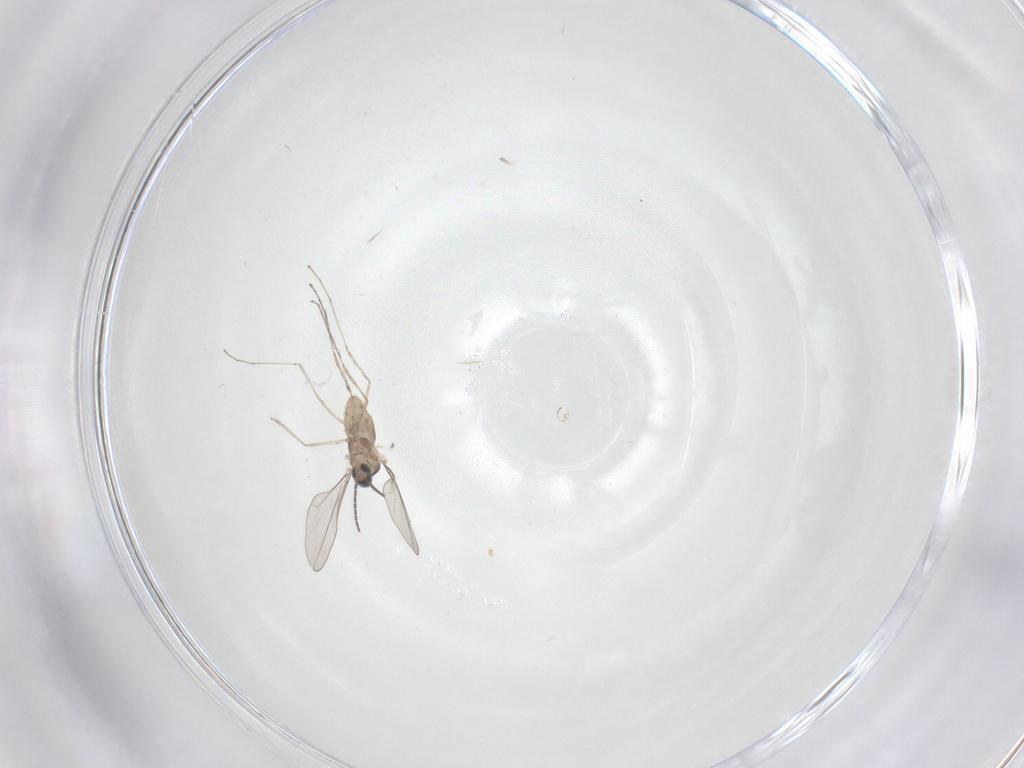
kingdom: Animalia
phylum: Arthropoda
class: Insecta
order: Diptera
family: Cecidomyiidae
